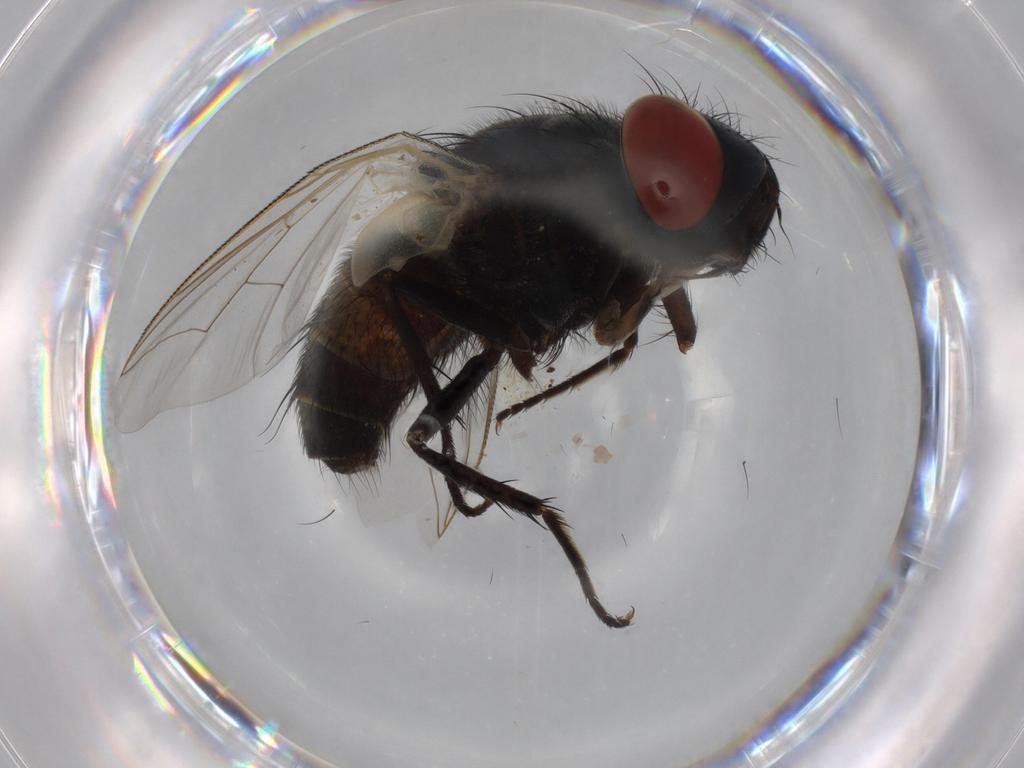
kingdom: Animalia
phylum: Arthropoda
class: Insecta
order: Diptera
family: Sarcophagidae
